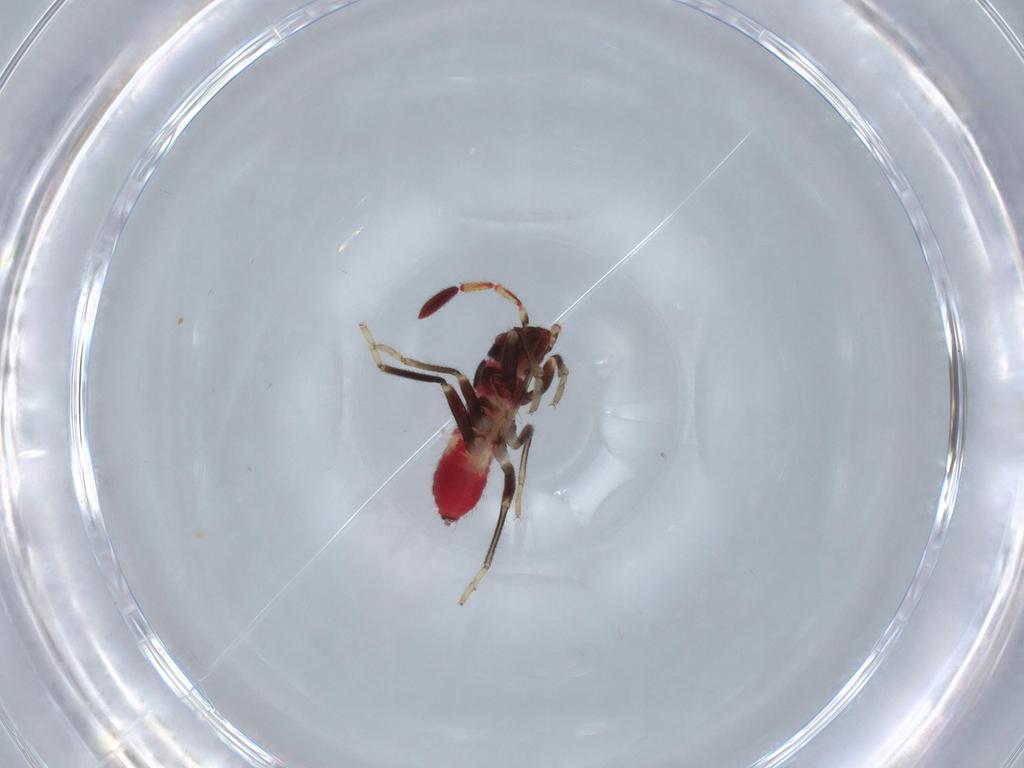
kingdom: Animalia
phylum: Arthropoda
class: Insecta
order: Hemiptera
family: Rhyparochromidae
